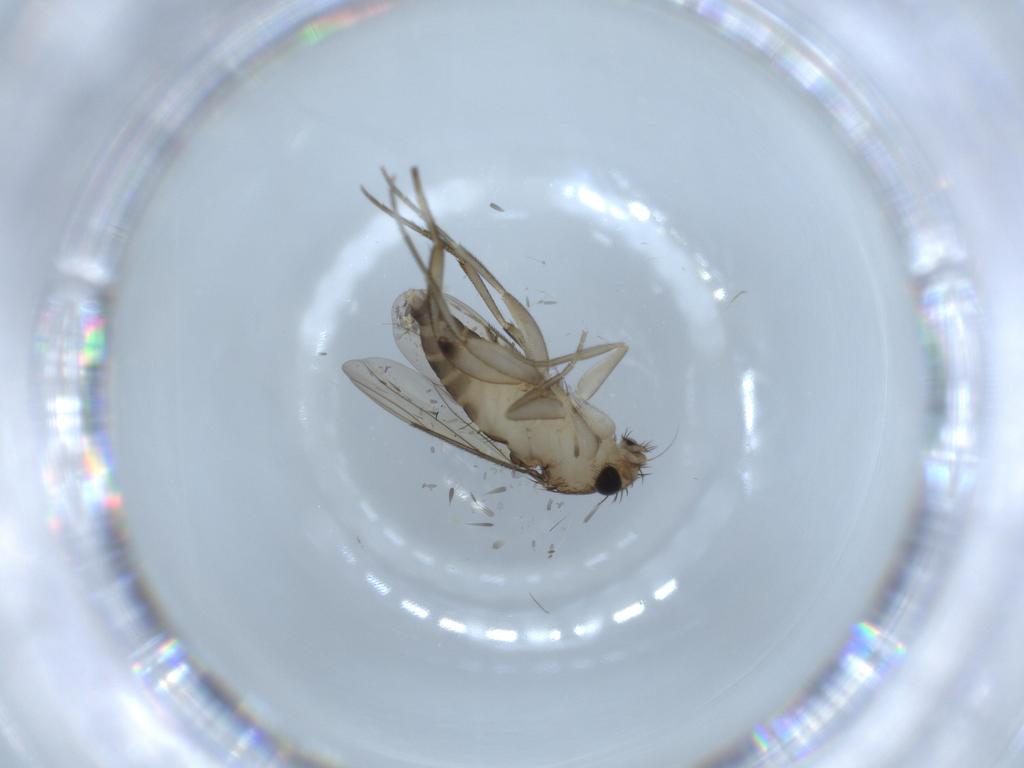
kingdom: Animalia
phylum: Arthropoda
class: Insecta
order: Diptera
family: Phoridae
